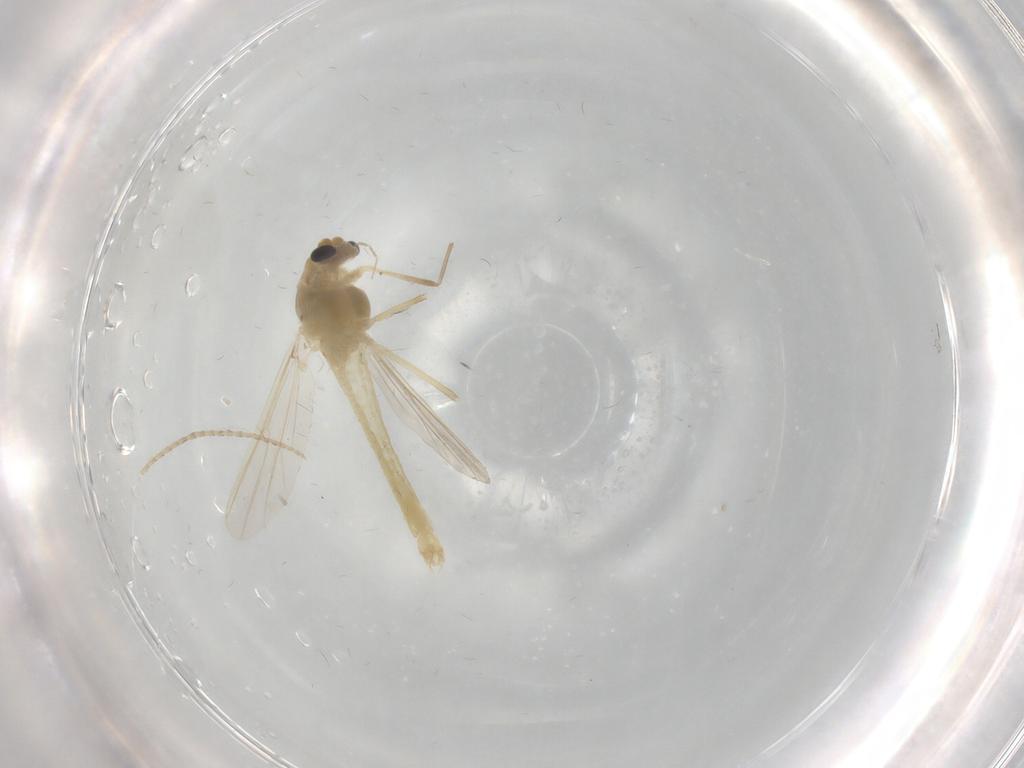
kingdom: Animalia
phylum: Arthropoda
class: Insecta
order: Diptera
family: Chironomidae
